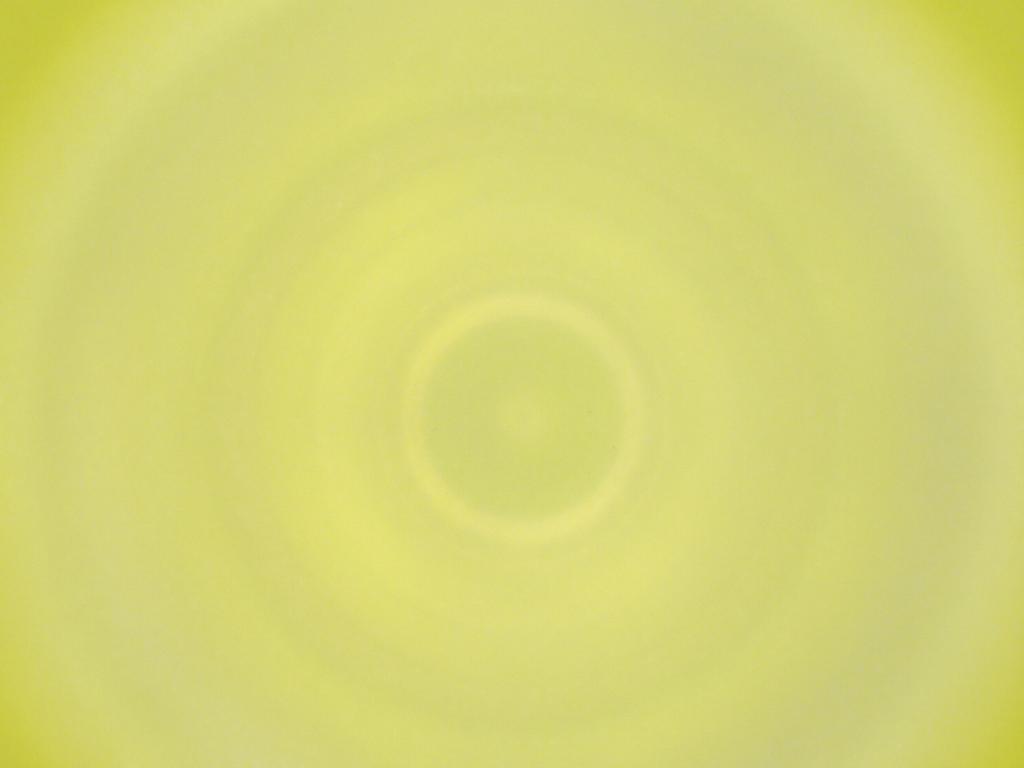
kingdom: Animalia
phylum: Arthropoda
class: Insecta
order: Diptera
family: Cecidomyiidae
